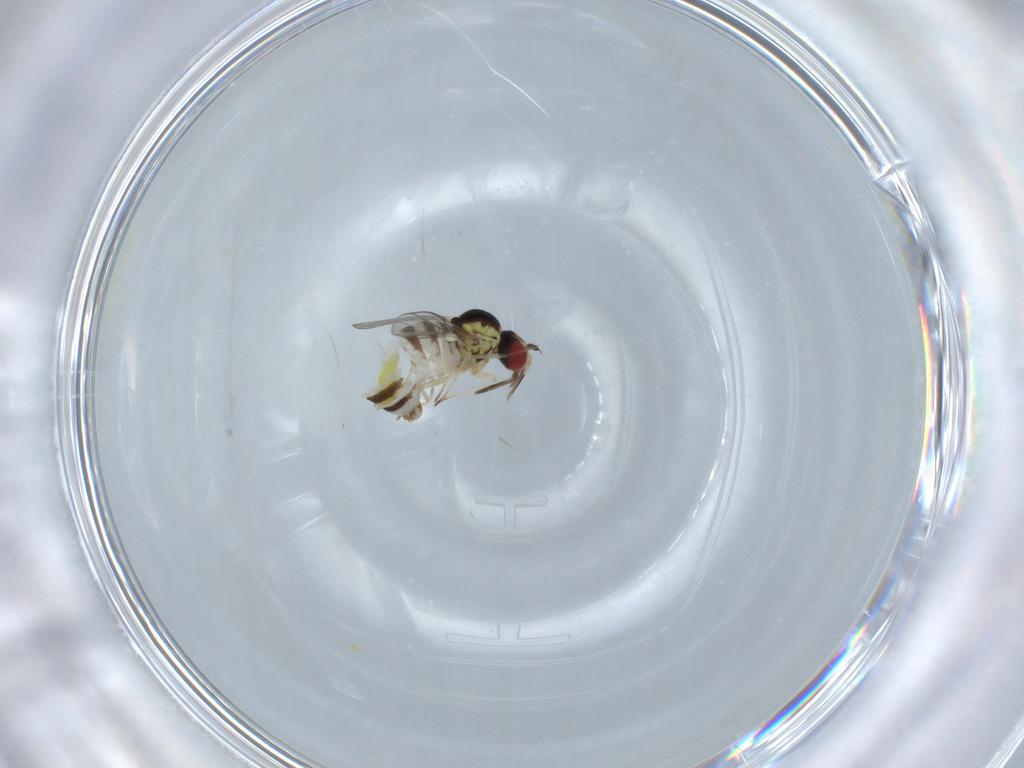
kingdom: Animalia
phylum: Arthropoda
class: Insecta
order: Diptera
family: Bombyliidae
